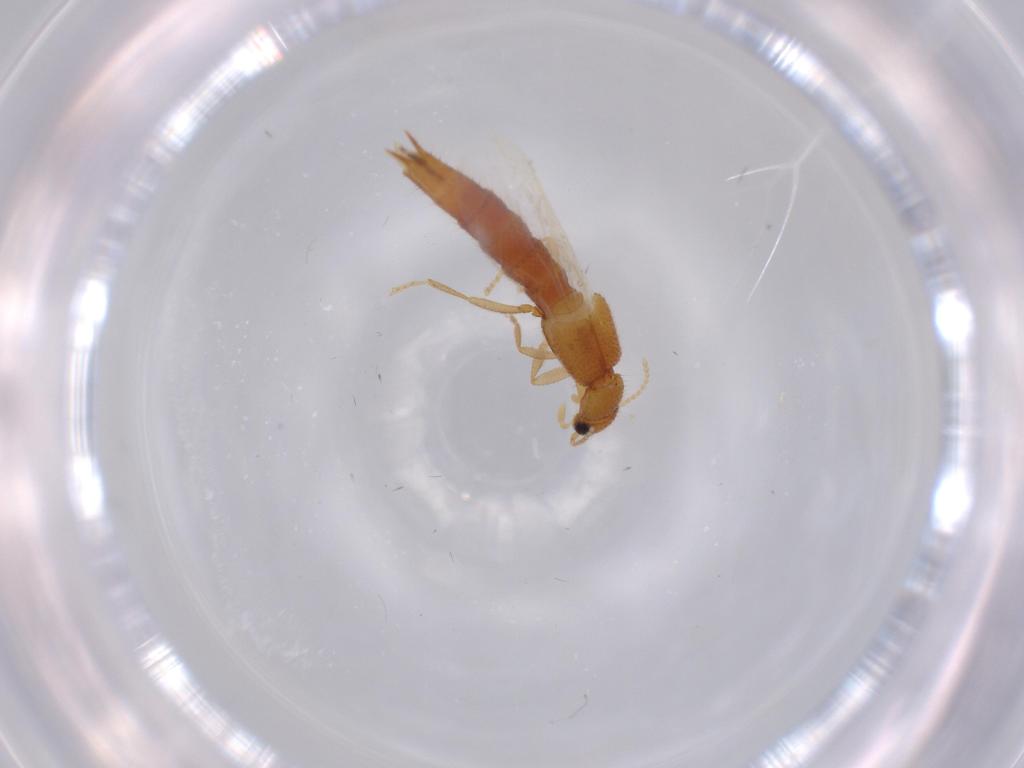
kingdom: Animalia
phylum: Arthropoda
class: Insecta
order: Coleoptera
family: Staphylinidae
